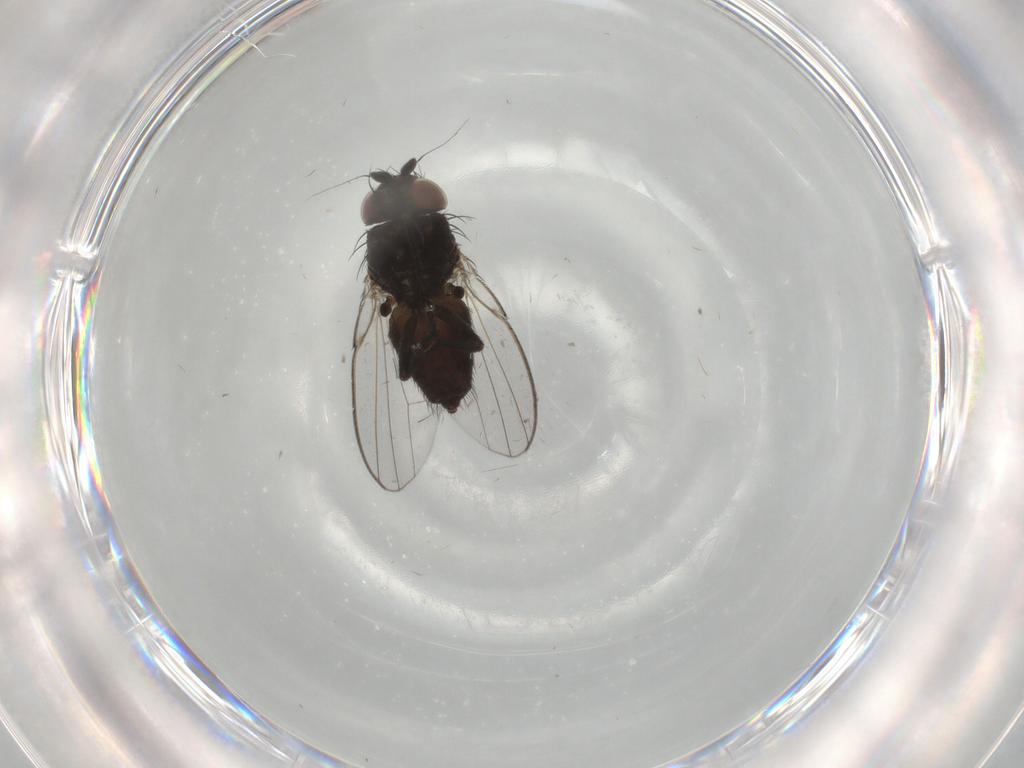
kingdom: Animalia
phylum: Arthropoda
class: Insecta
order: Diptera
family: Milichiidae
